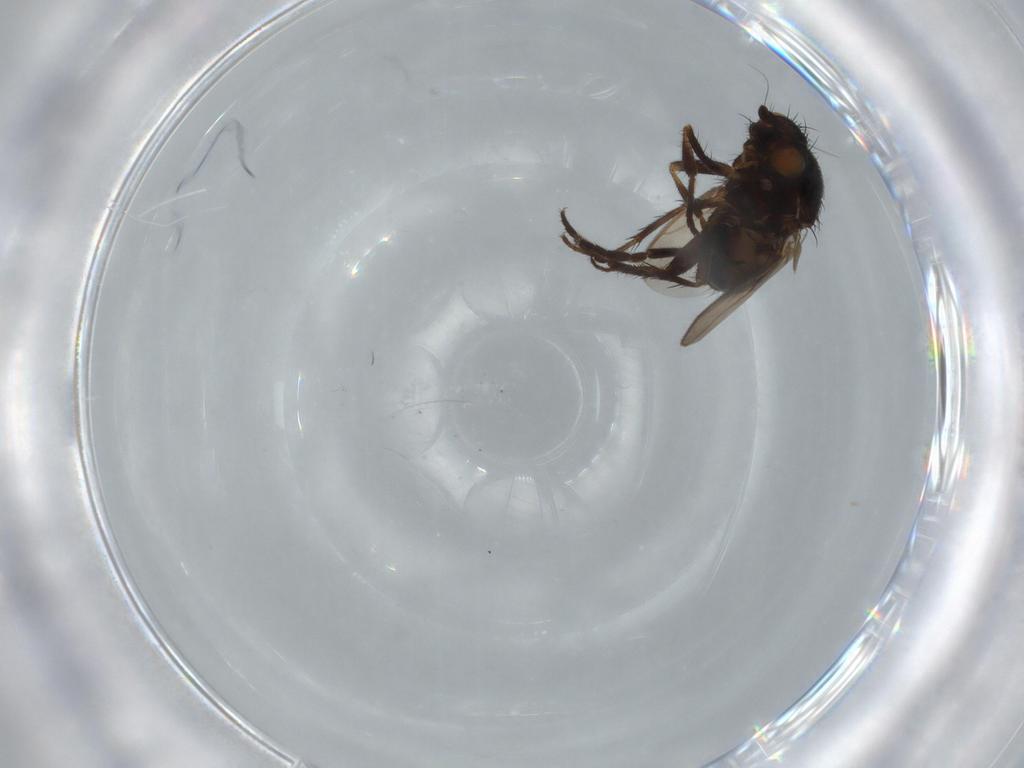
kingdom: Animalia
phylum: Arthropoda
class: Insecta
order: Diptera
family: Sphaeroceridae
